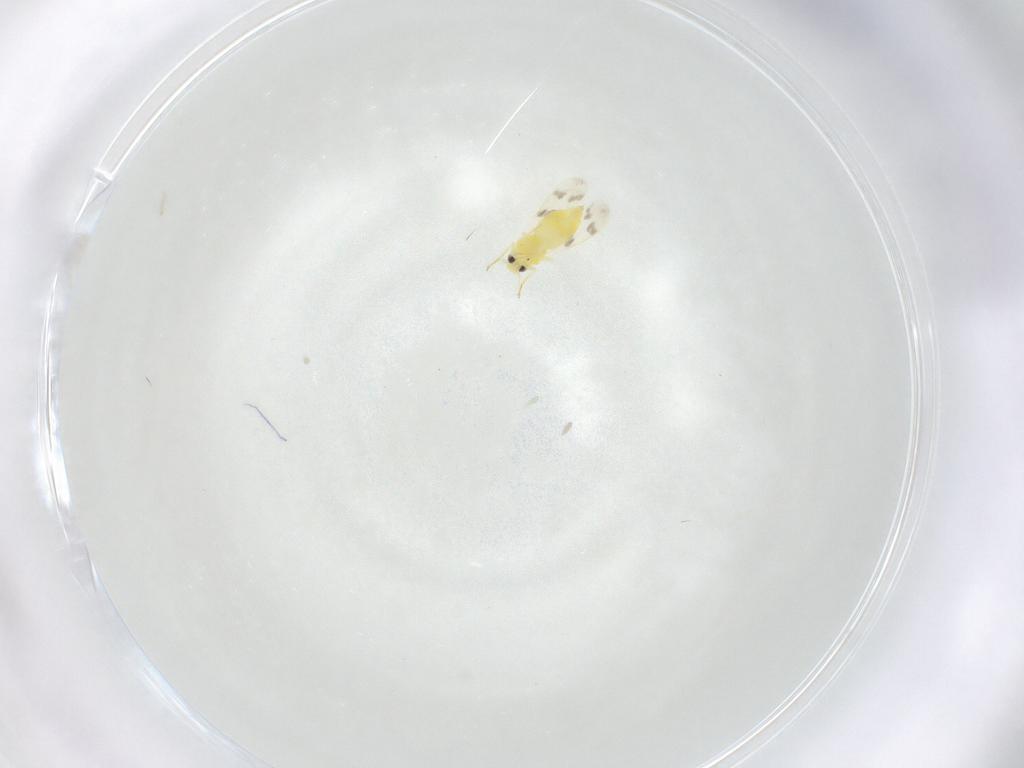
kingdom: Animalia
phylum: Arthropoda
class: Insecta
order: Hemiptera
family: Aleyrodidae
